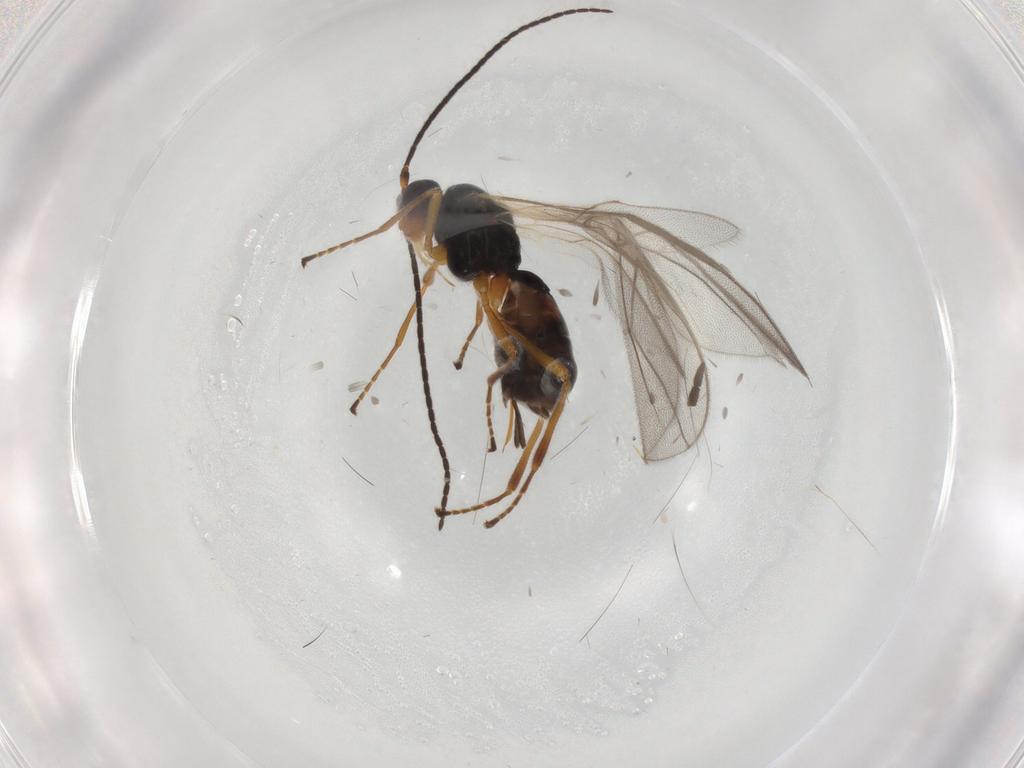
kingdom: Animalia
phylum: Arthropoda
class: Insecta
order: Hymenoptera
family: Braconidae
